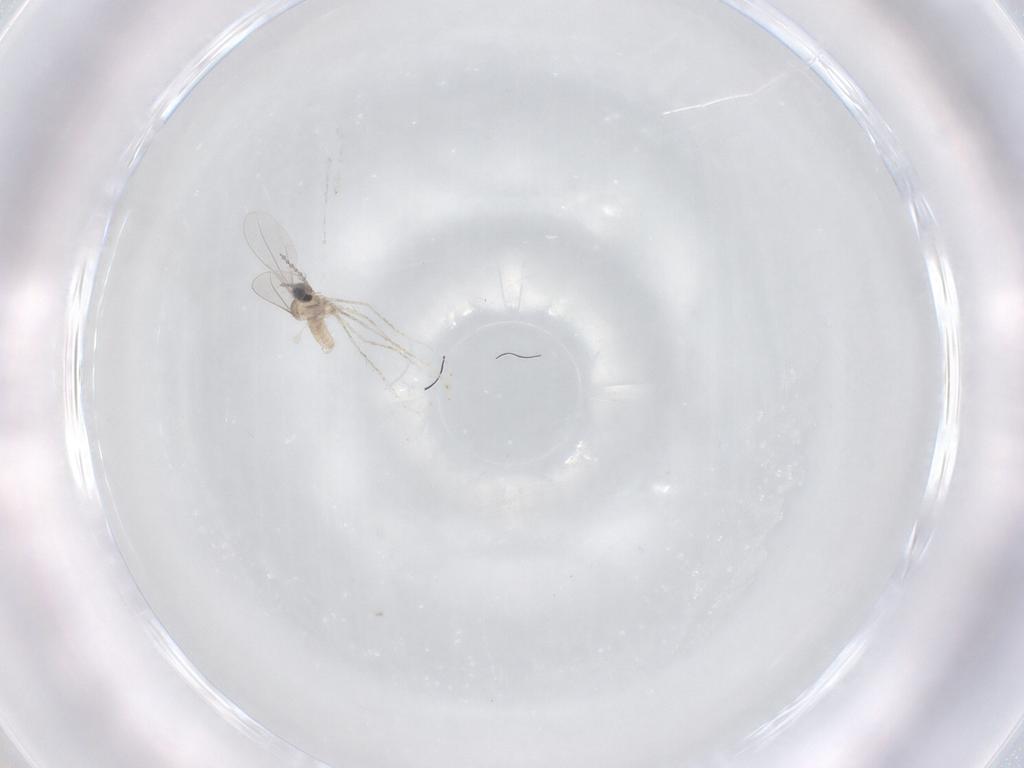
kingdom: Animalia
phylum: Arthropoda
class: Insecta
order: Diptera
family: Cecidomyiidae
